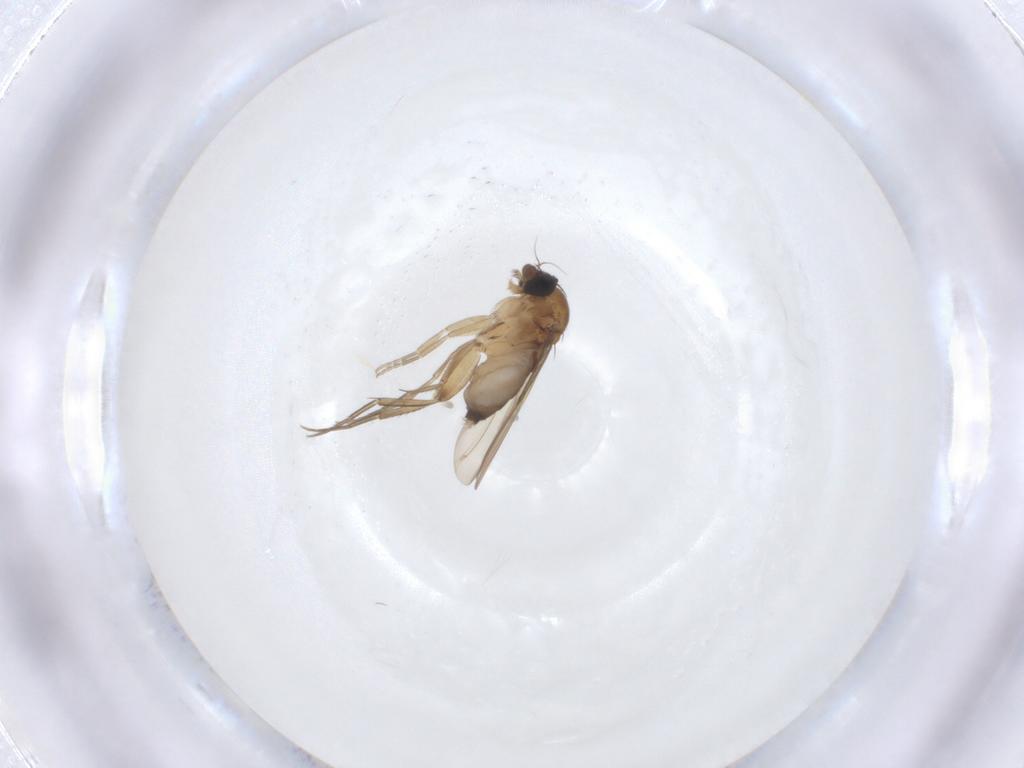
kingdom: Animalia
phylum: Arthropoda
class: Insecta
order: Diptera
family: Phoridae
